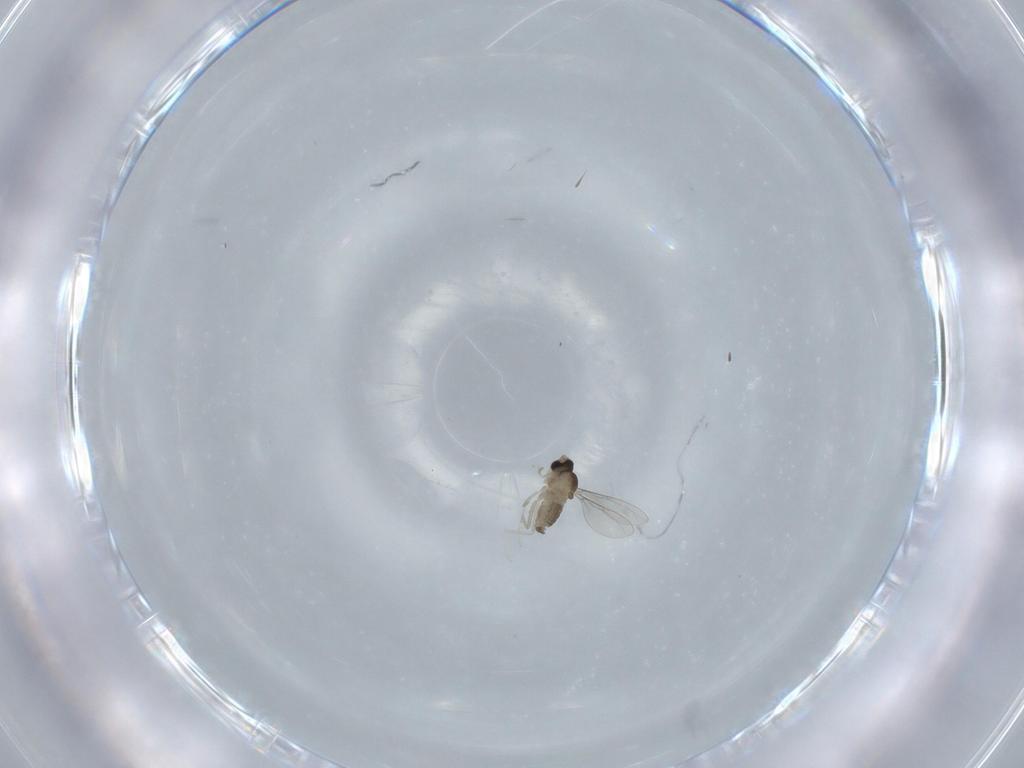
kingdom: Animalia
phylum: Arthropoda
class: Insecta
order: Diptera
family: Cecidomyiidae
